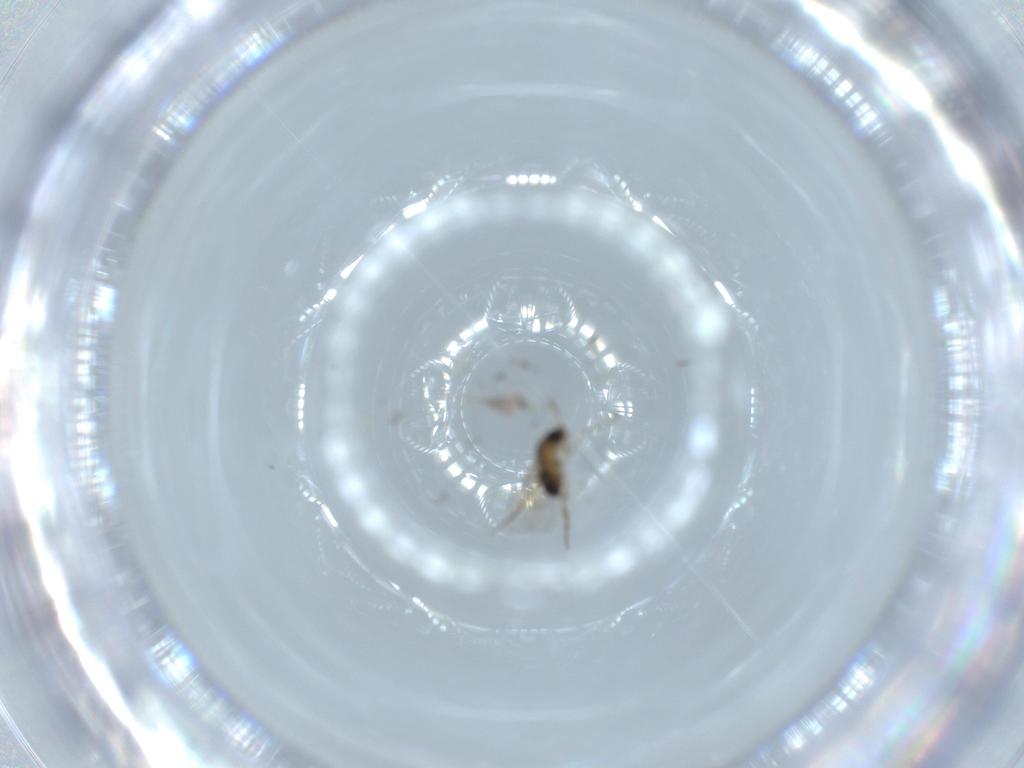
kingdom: Animalia
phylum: Arthropoda
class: Insecta
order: Diptera
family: Phoridae
